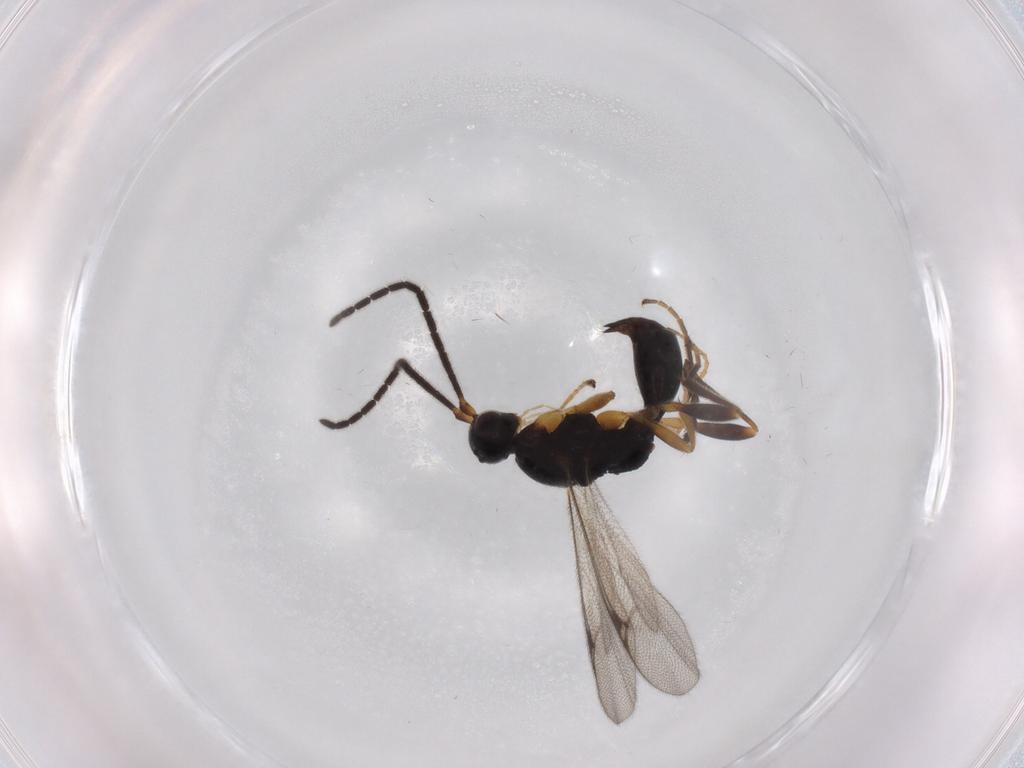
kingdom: Animalia
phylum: Arthropoda
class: Insecta
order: Hymenoptera
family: Proctotrupidae
